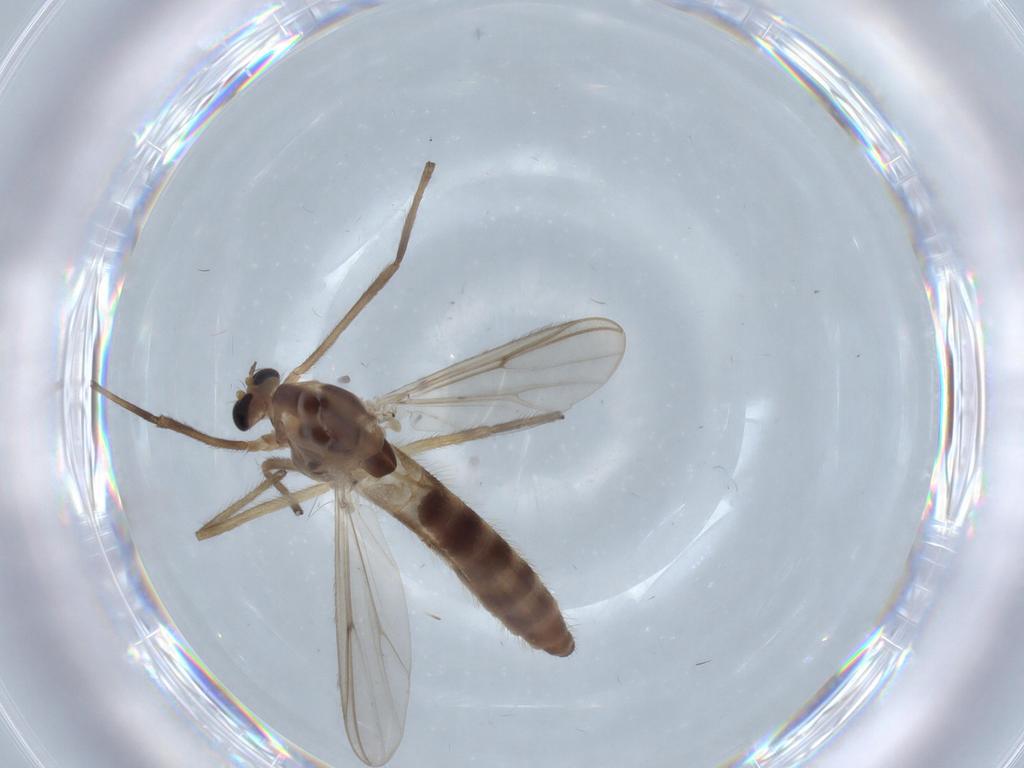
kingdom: Animalia
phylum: Arthropoda
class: Insecta
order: Diptera
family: Chironomidae
